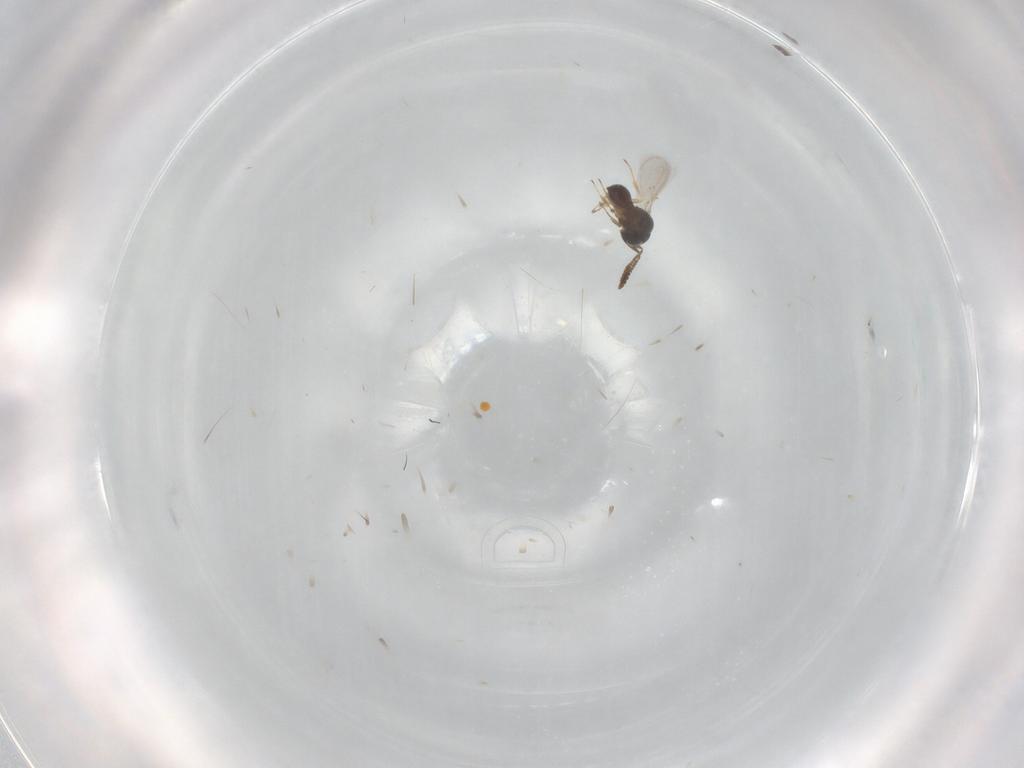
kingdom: Animalia
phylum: Arthropoda
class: Insecta
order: Hymenoptera
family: Scelionidae
